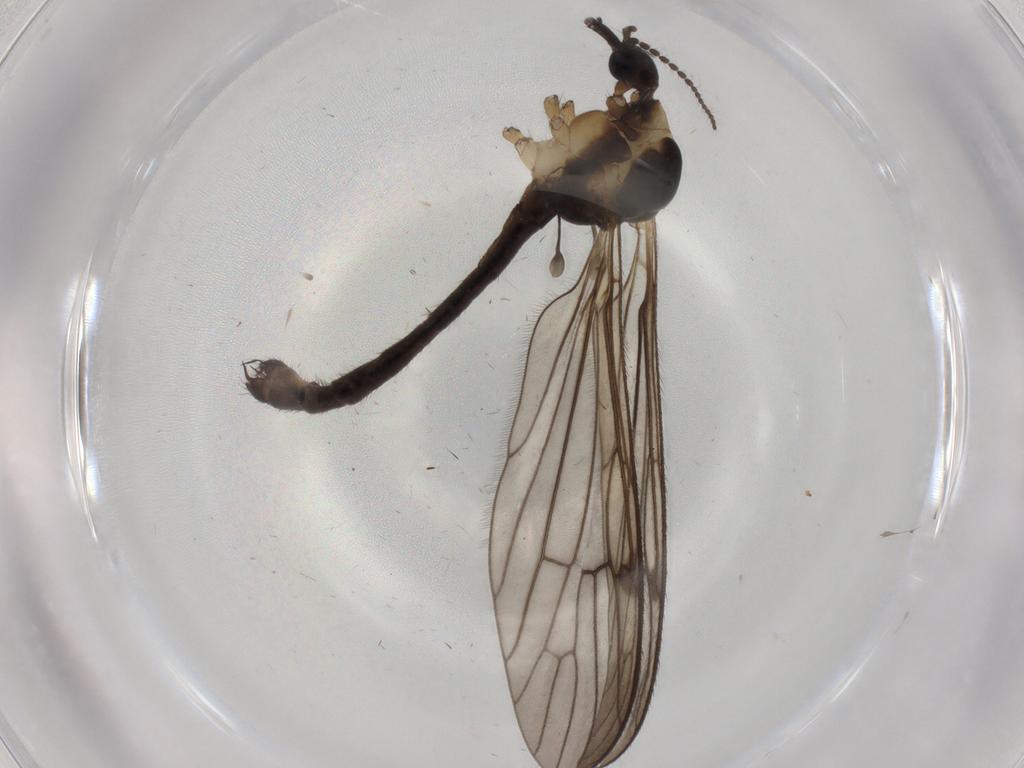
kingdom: Animalia
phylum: Arthropoda
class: Insecta
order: Diptera
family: Limoniidae
